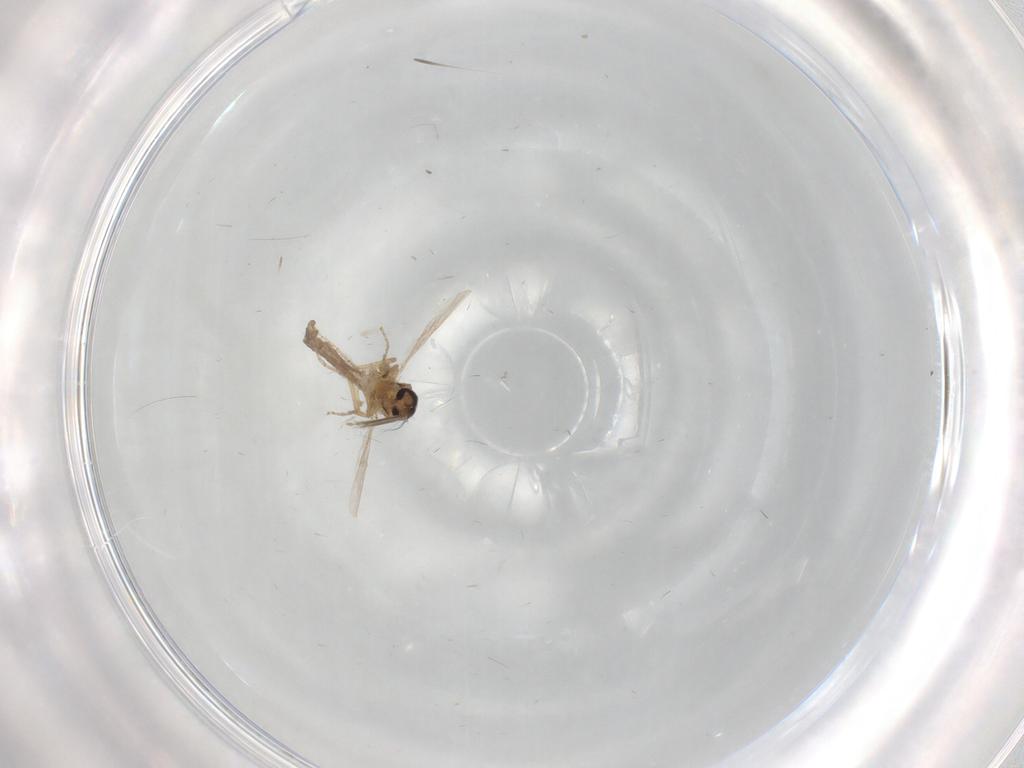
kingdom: Animalia
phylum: Arthropoda
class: Insecta
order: Diptera
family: Ceratopogonidae
